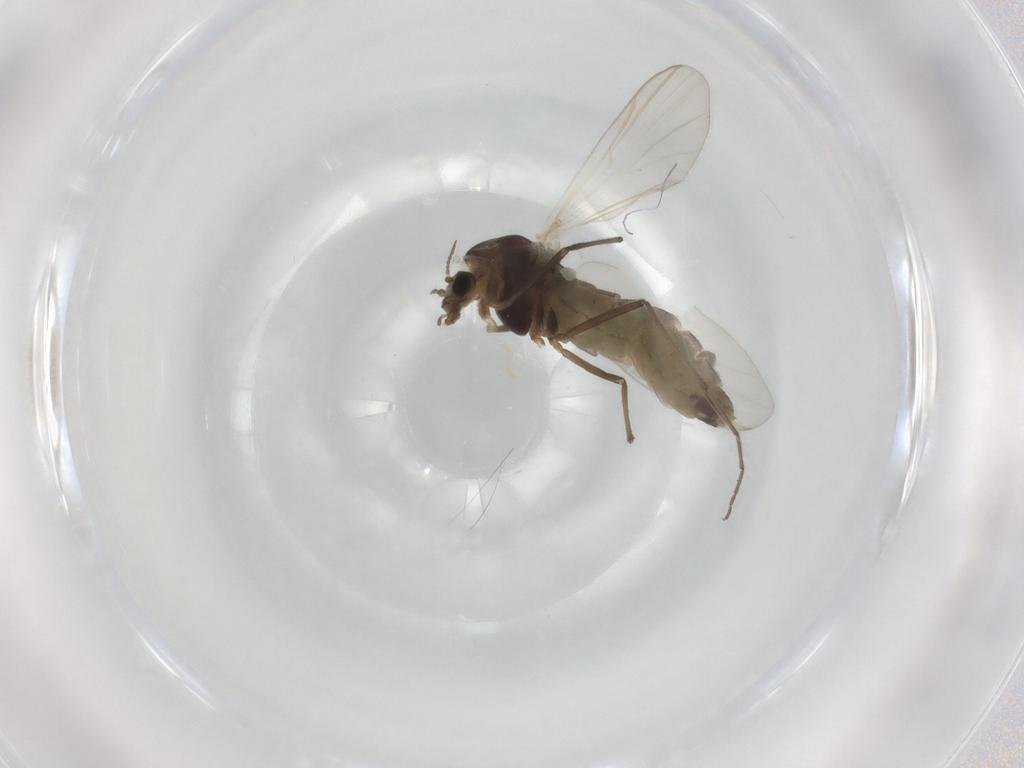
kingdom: Animalia
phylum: Arthropoda
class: Insecta
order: Diptera
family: Chironomidae
